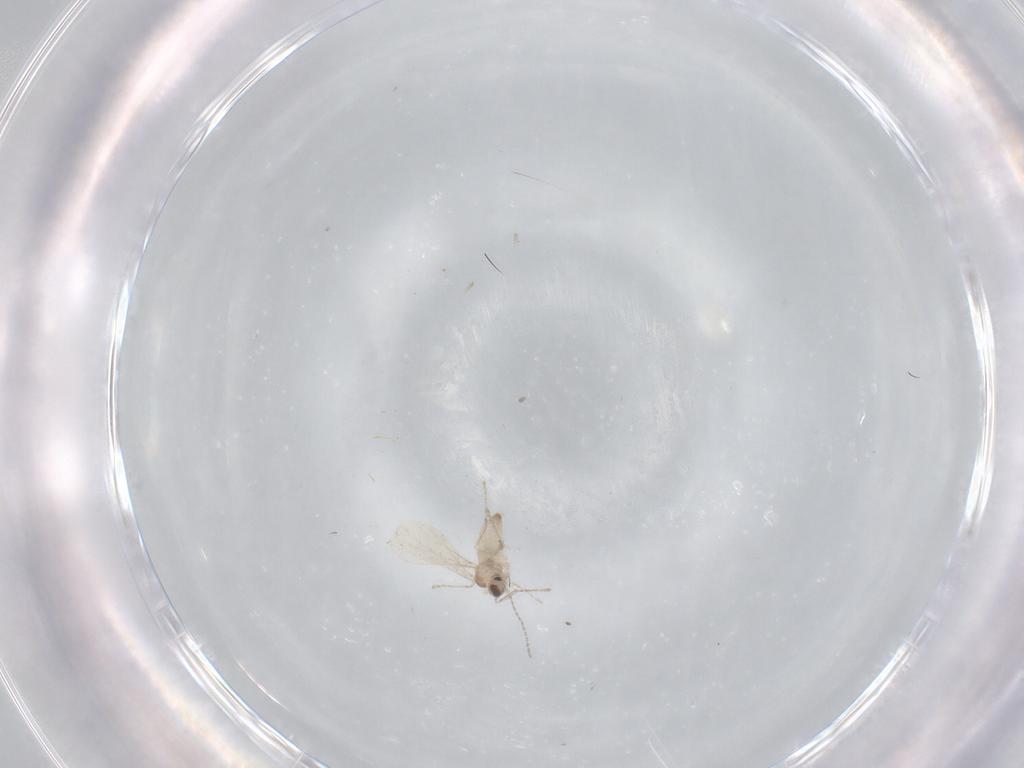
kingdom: Animalia
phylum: Arthropoda
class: Insecta
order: Diptera
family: Cecidomyiidae
